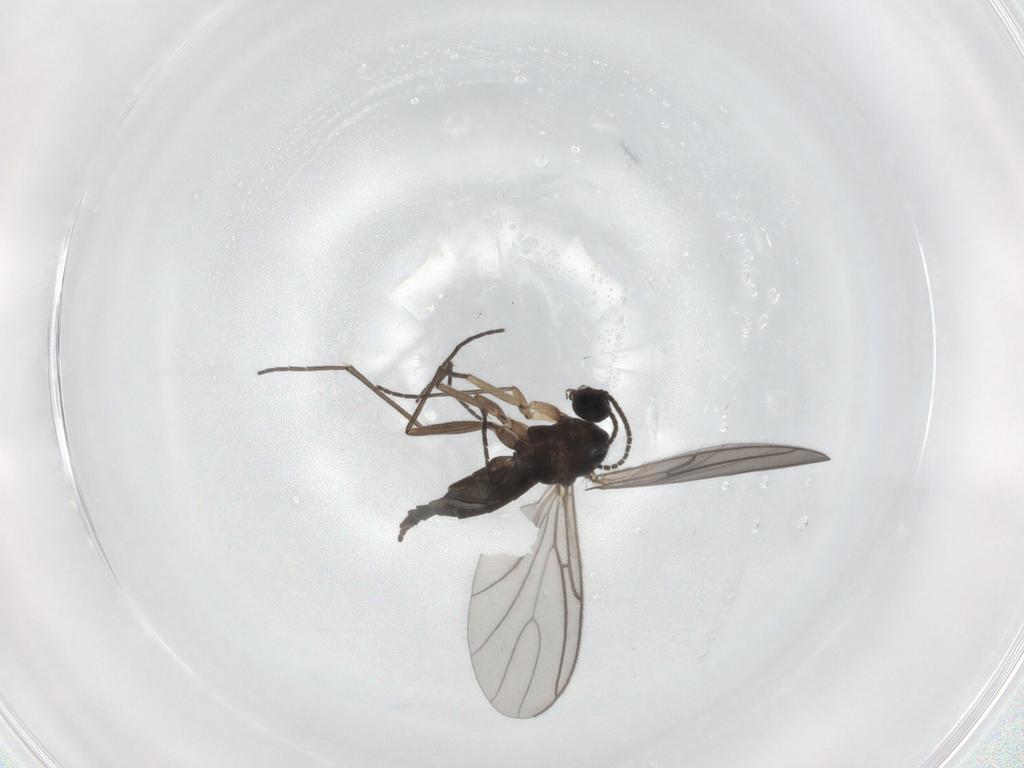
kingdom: Animalia
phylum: Arthropoda
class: Insecta
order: Diptera
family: Sciaridae
